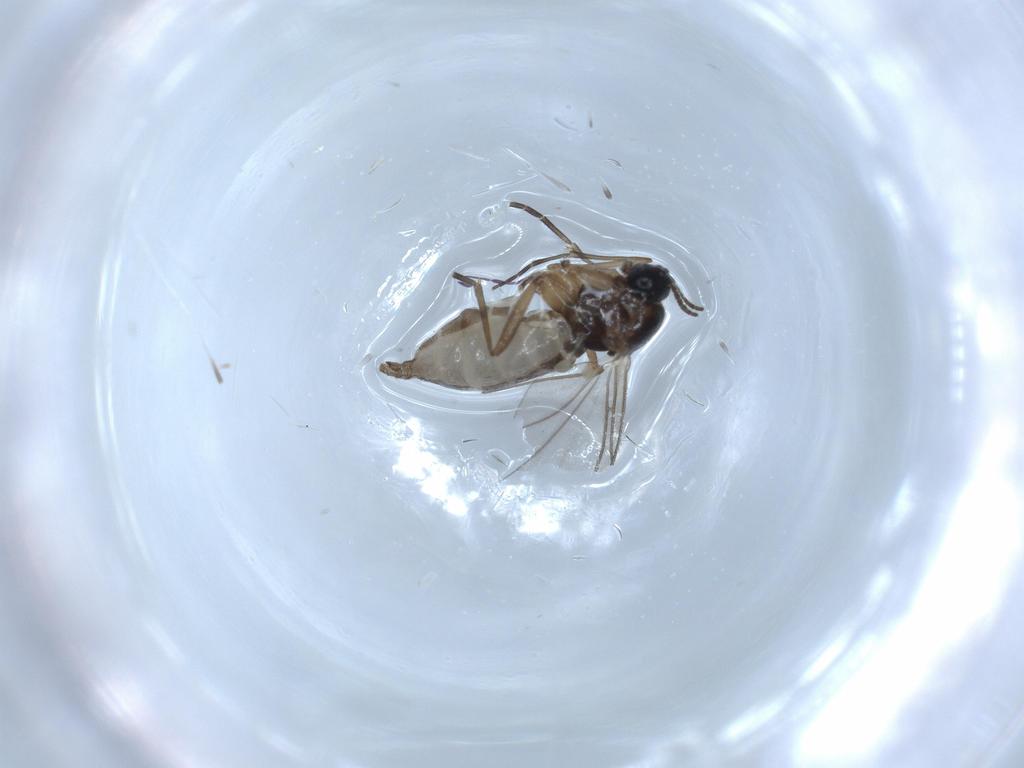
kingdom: Animalia
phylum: Arthropoda
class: Insecta
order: Diptera
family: Sciaridae
